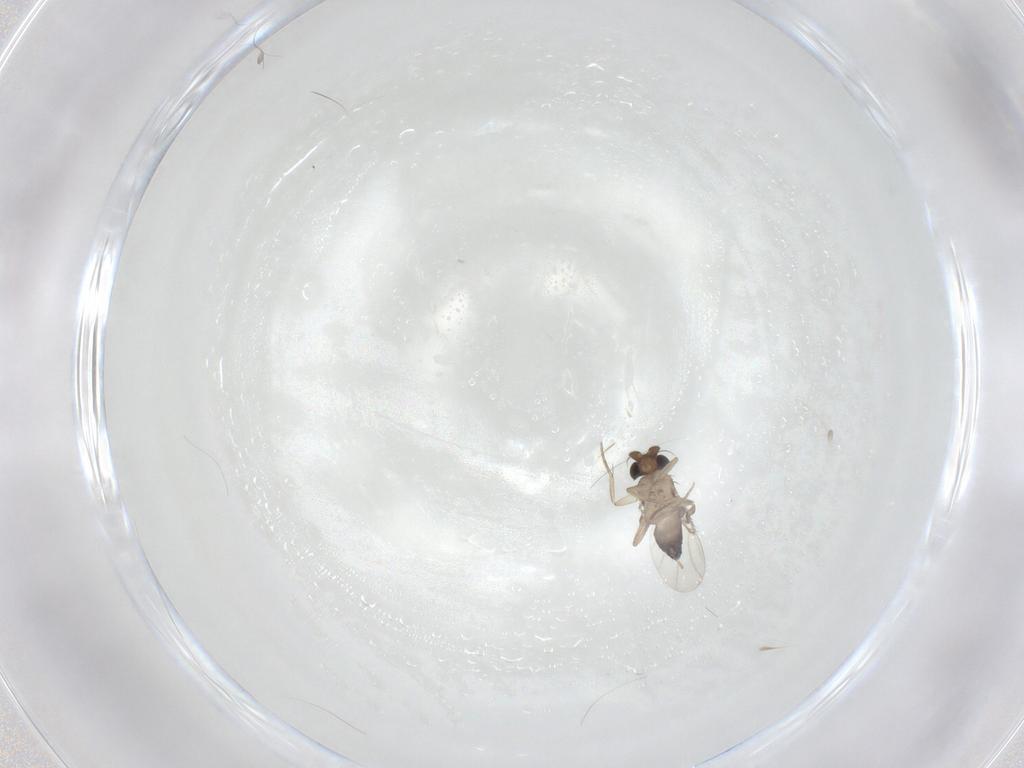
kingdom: Animalia
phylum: Arthropoda
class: Insecta
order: Diptera
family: Phoridae
